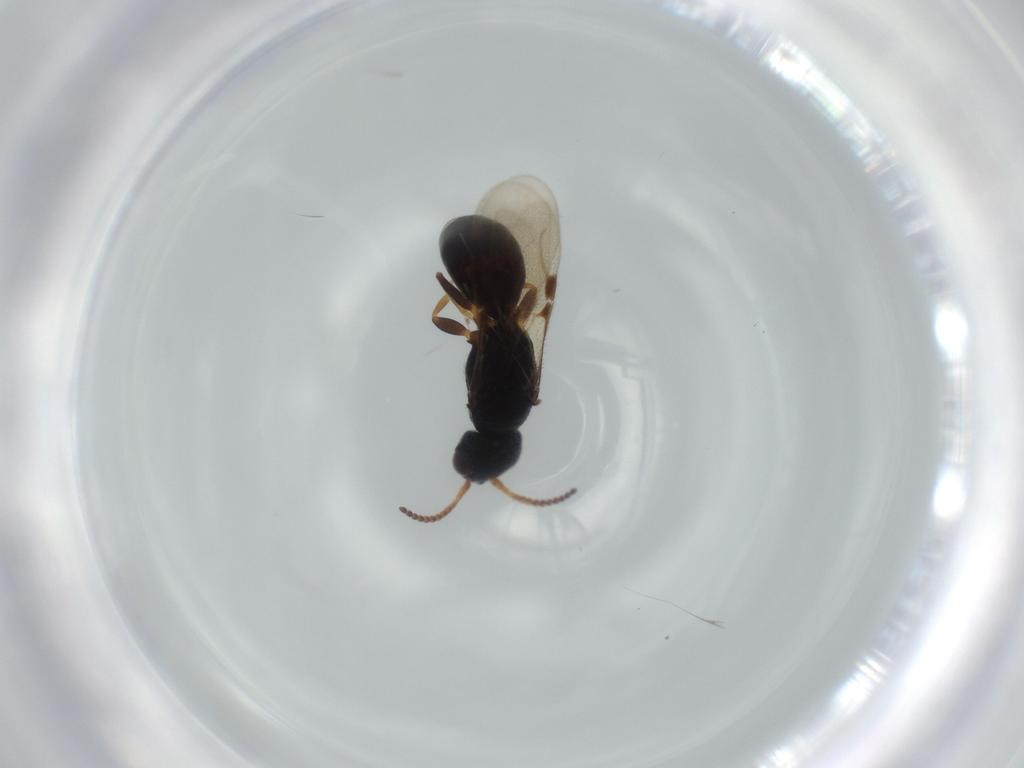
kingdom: Animalia
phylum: Arthropoda
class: Insecta
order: Hymenoptera
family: Bethylidae
